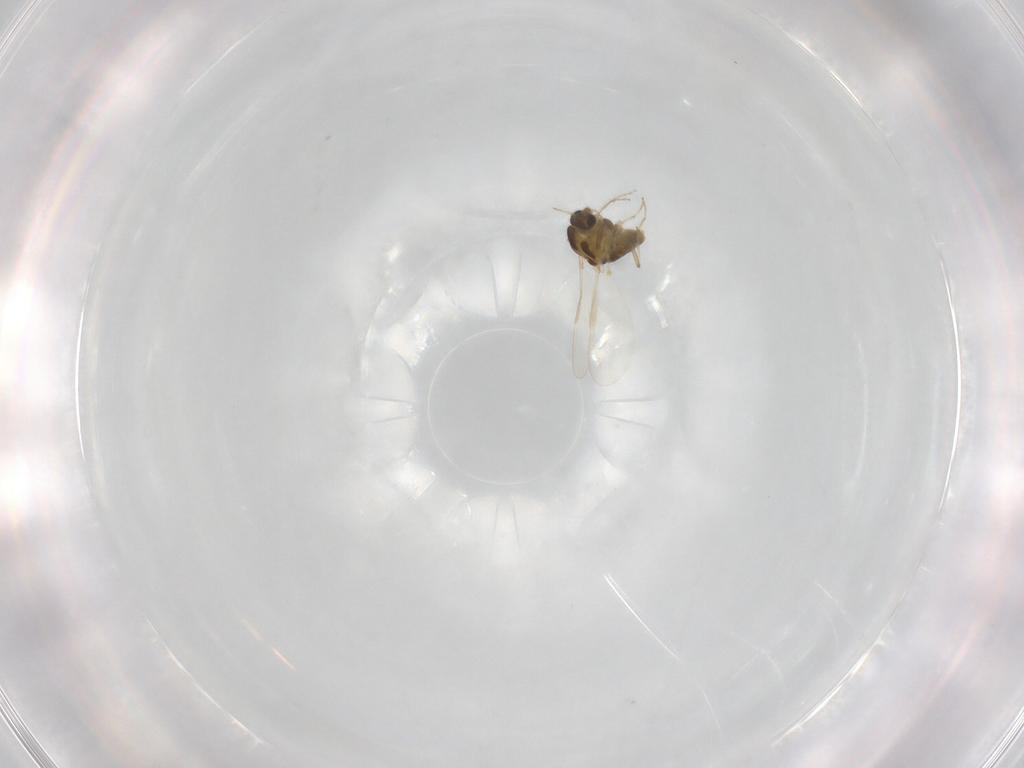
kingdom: Animalia
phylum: Arthropoda
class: Insecta
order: Diptera
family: Chironomidae
